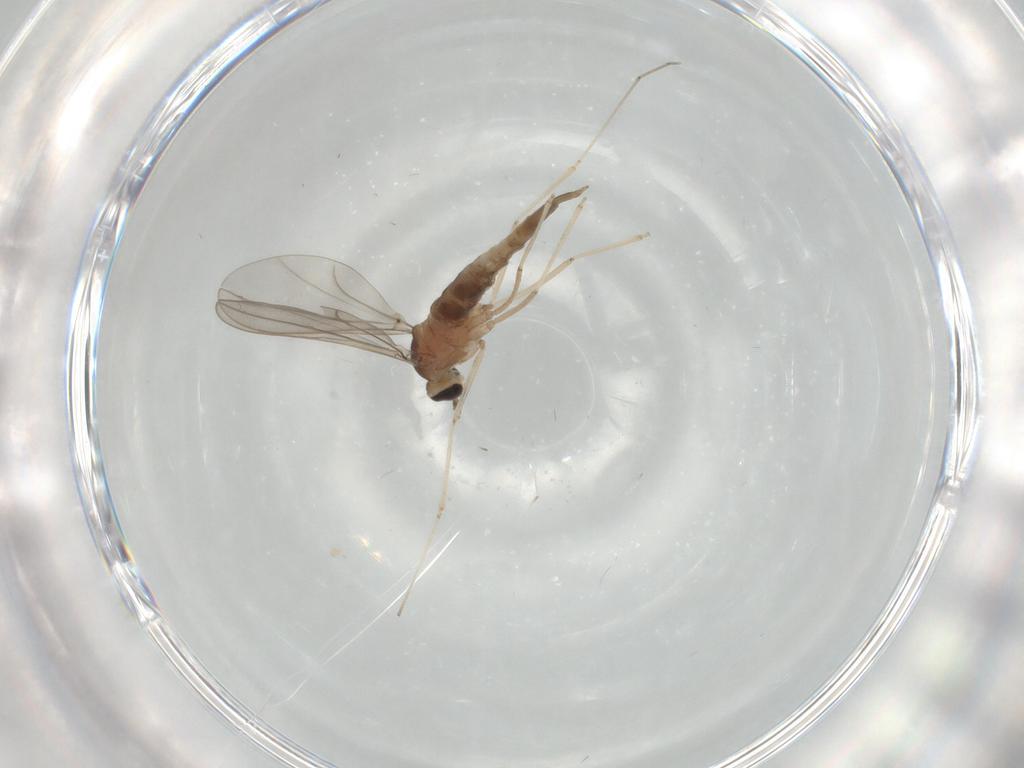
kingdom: Animalia
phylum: Arthropoda
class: Insecta
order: Diptera
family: Cecidomyiidae
